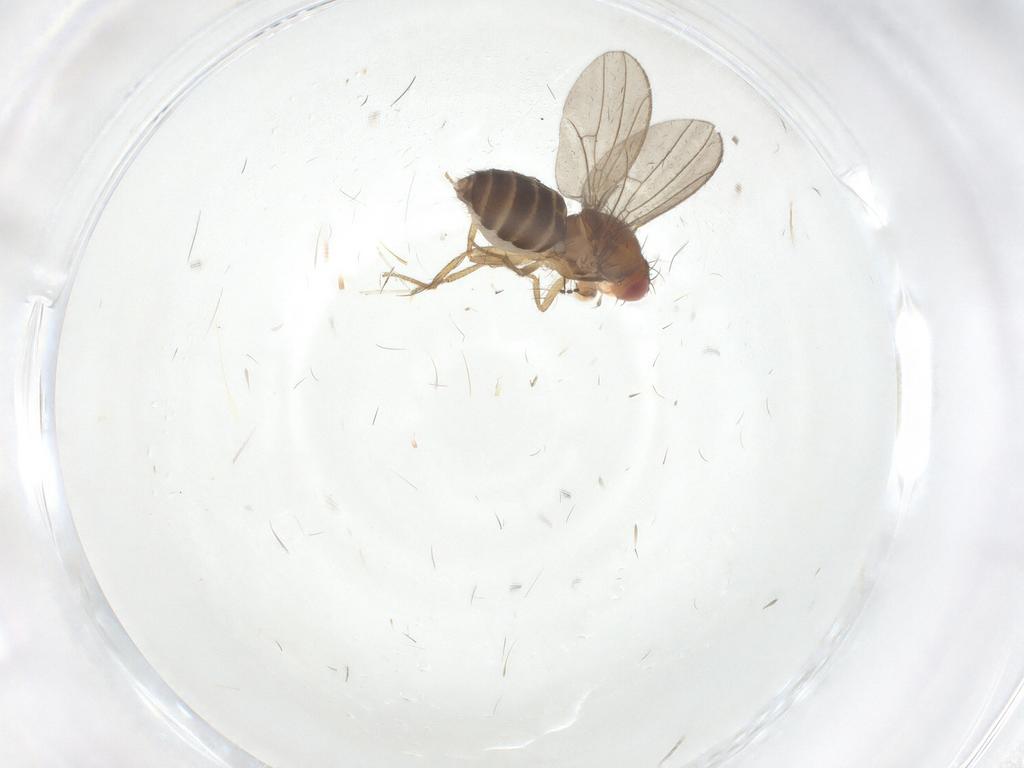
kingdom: Animalia
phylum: Arthropoda
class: Insecta
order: Diptera
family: Drosophilidae
